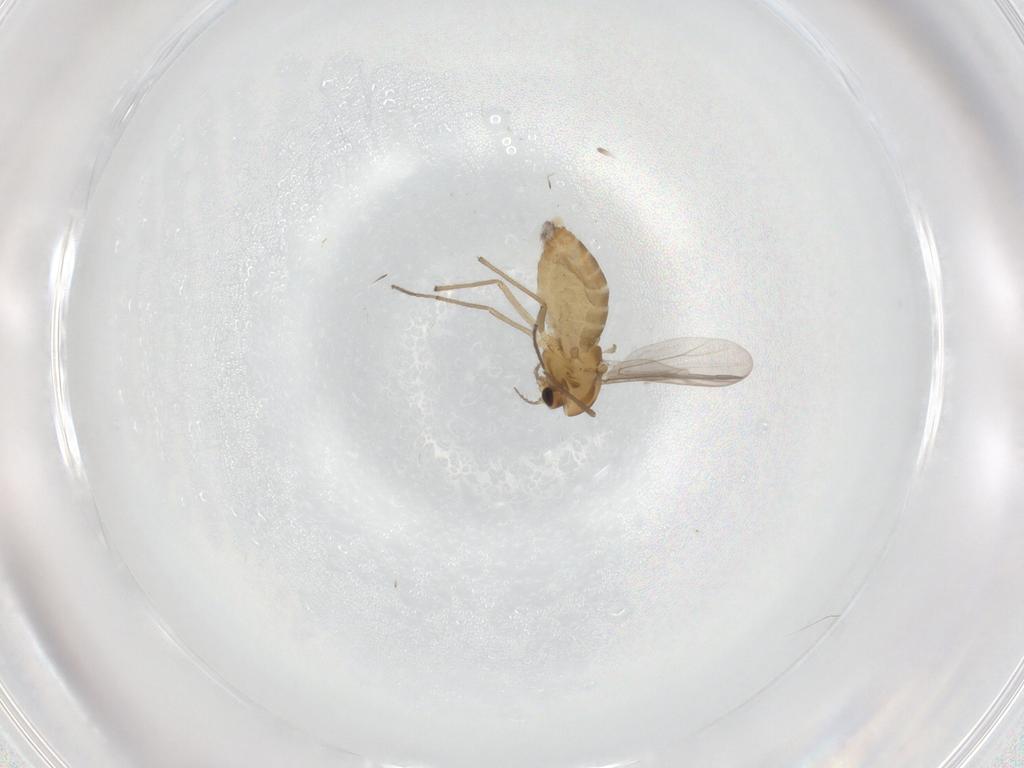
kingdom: Animalia
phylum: Arthropoda
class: Insecta
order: Diptera
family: Chironomidae
